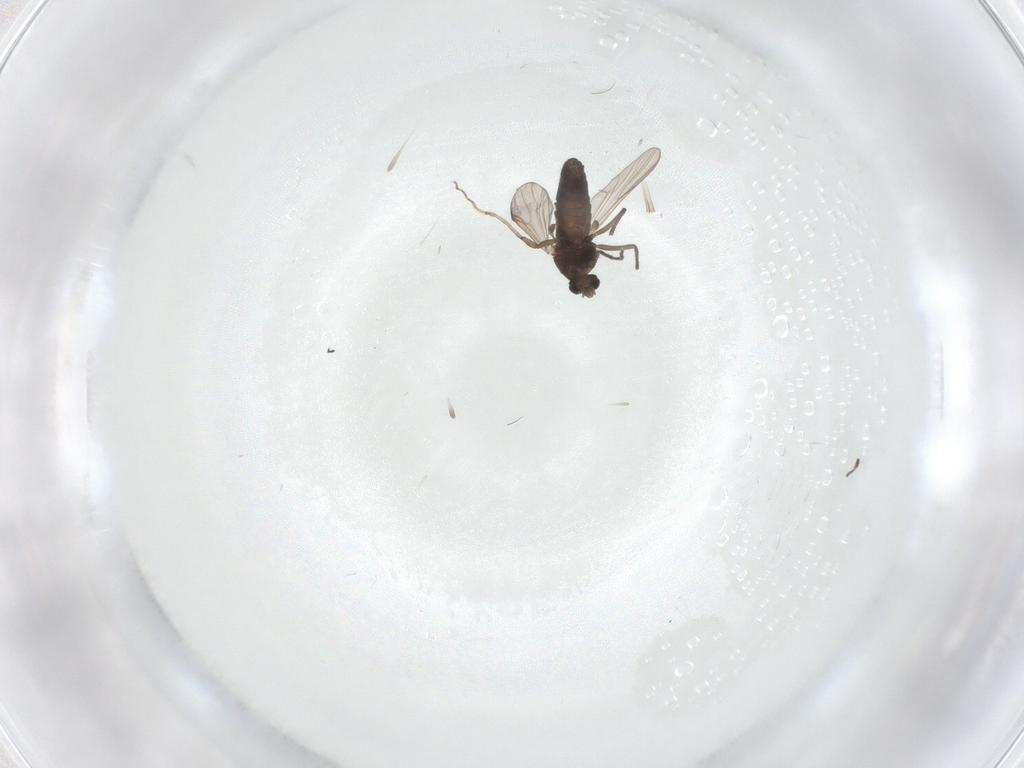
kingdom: Animalia
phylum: Arthropoda
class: Insecta
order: Diptera
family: Chironomidae
